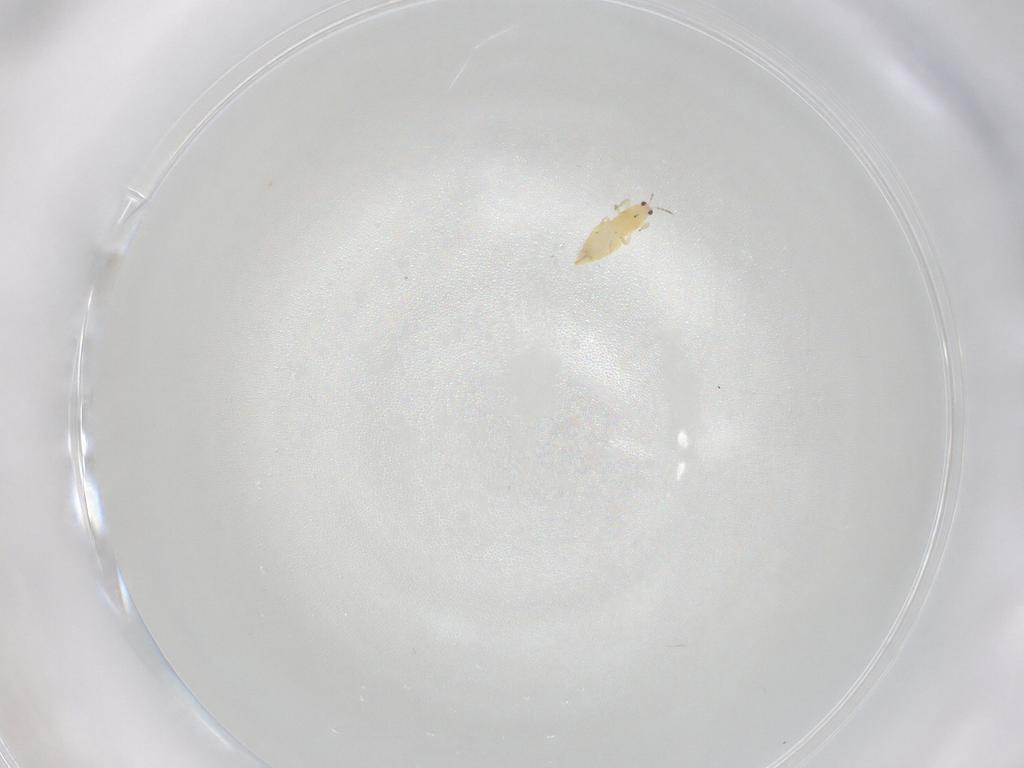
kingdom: Animalia
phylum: Arthropoda
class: Insecta
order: Thysanoptera
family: Thripidae
